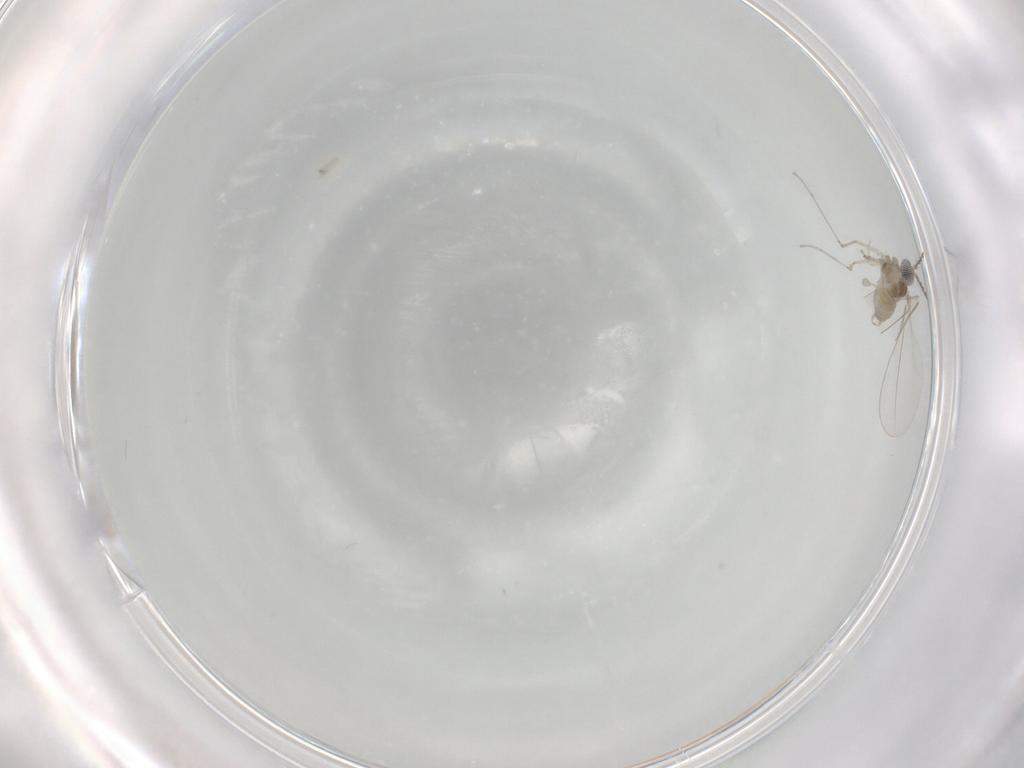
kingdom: Animalia
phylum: Arthropoda
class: Insecta
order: Diptera
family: Cecidomyiidae
